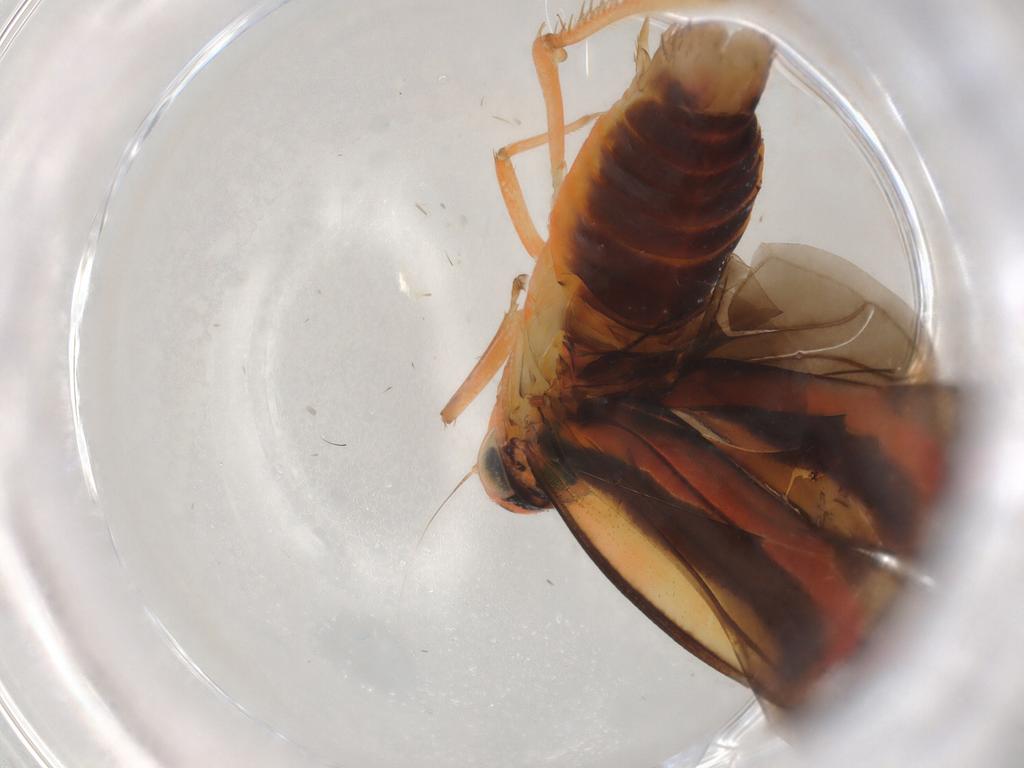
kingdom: Animalia
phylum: Arthropoda
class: Insecta
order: Hemiptera
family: Cicadellidae
